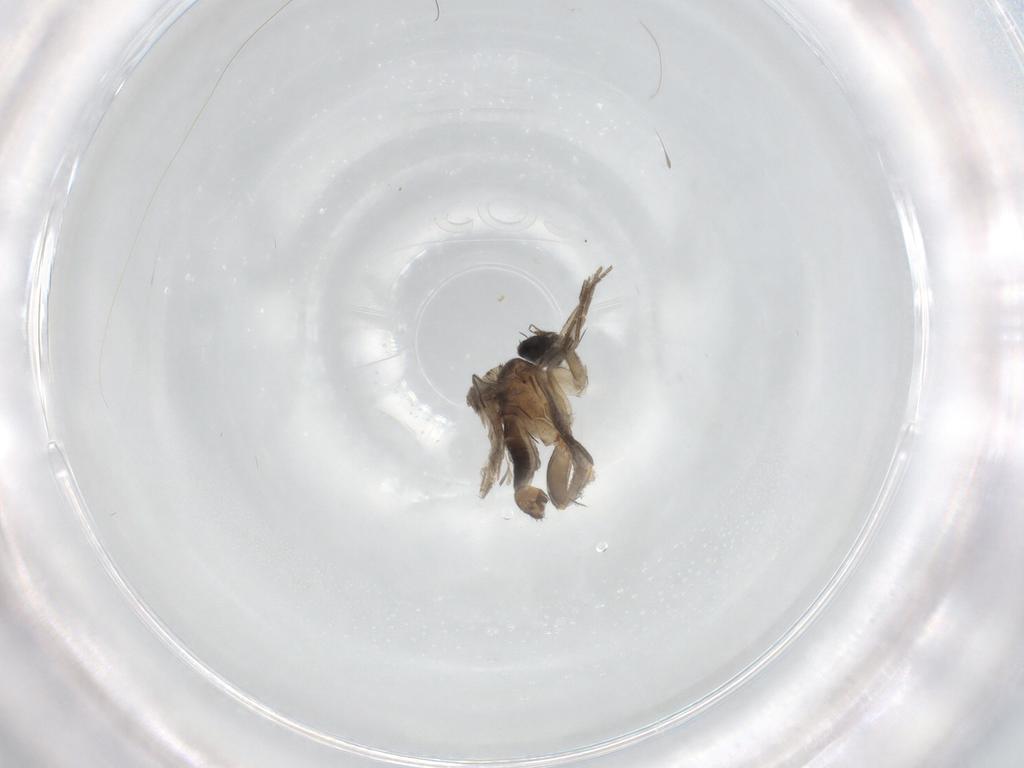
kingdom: Animalia
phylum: Arthropoda
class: Insecta
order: Diptera
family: Phoridae
